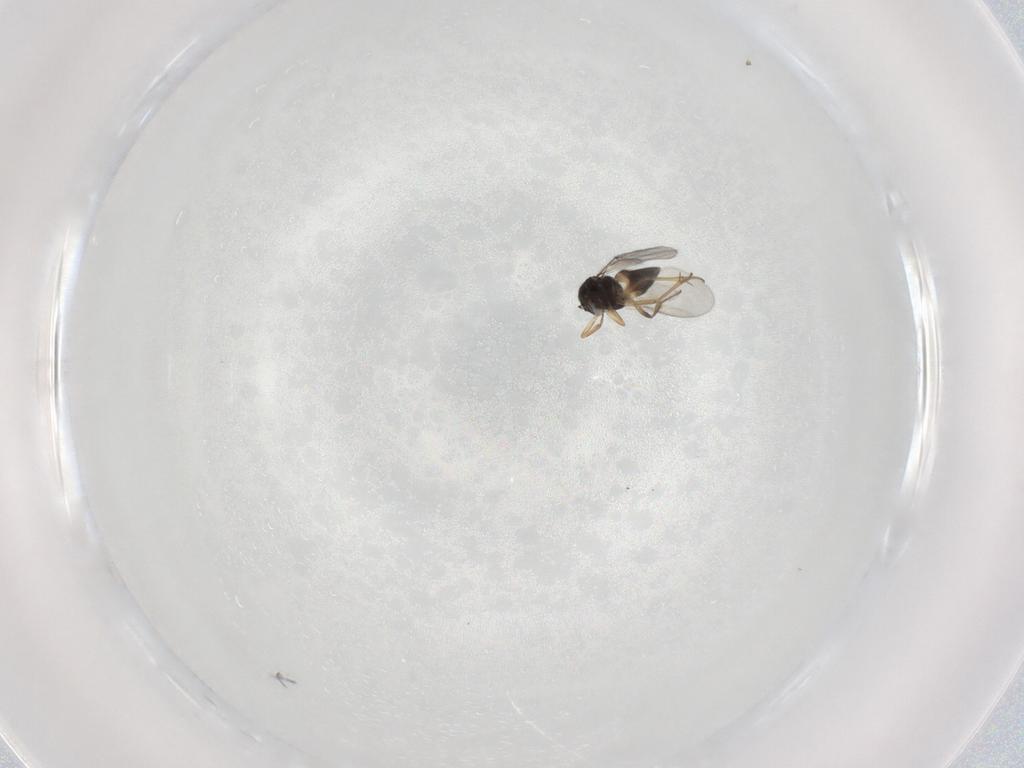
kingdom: Animalia
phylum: Arthropoda
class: Insecta
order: Hymenoptera
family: Scelionidae
